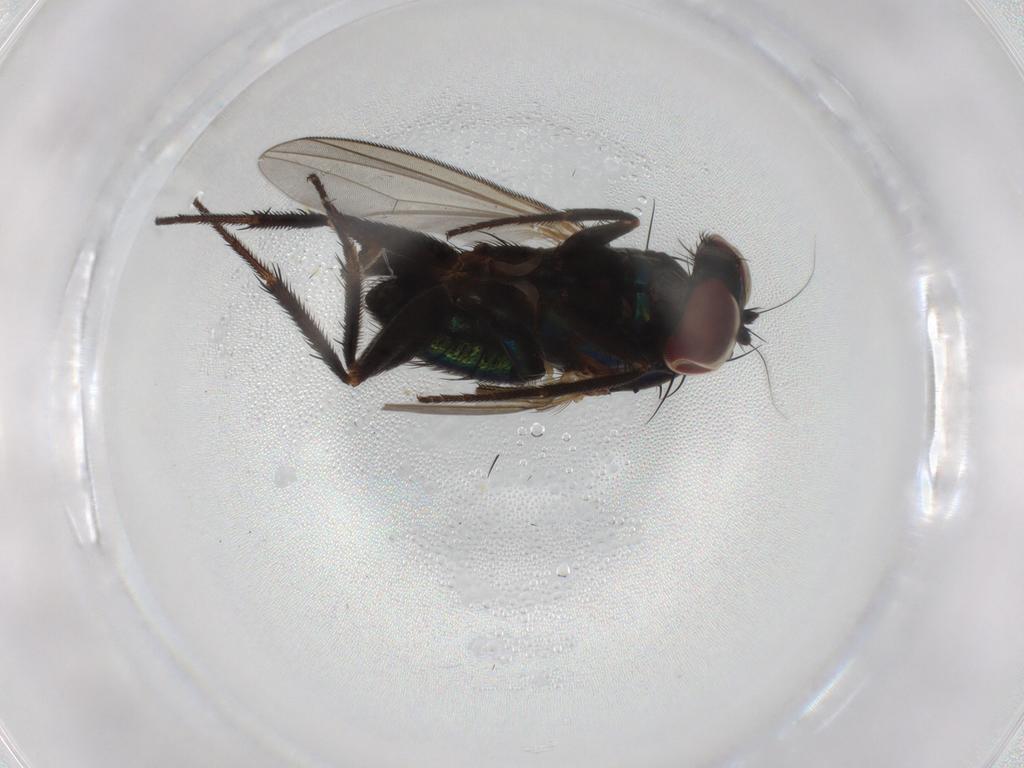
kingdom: Animalia
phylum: Arthropoda
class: Insecta
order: Diptera
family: Dolichopodidae
